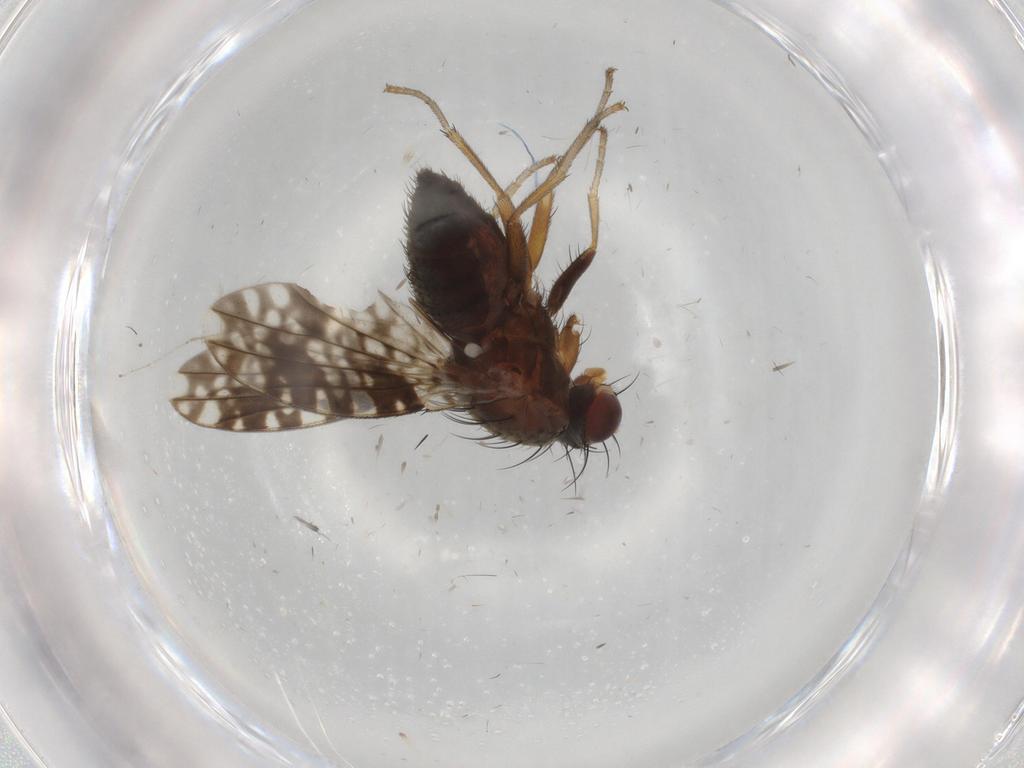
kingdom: Animalia
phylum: Arthropoda
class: Insecta
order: Diptera
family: Tephritidae
